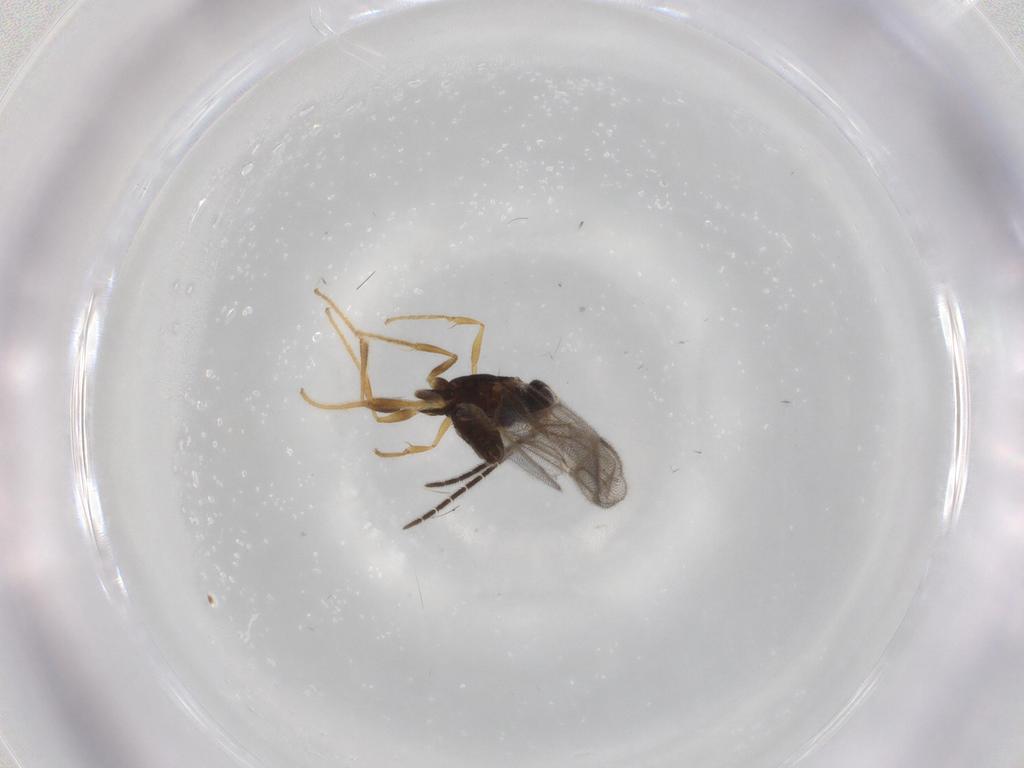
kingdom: Animalia
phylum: Arthropoda
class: Insecta
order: Hymenoptera
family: Dryinidae
